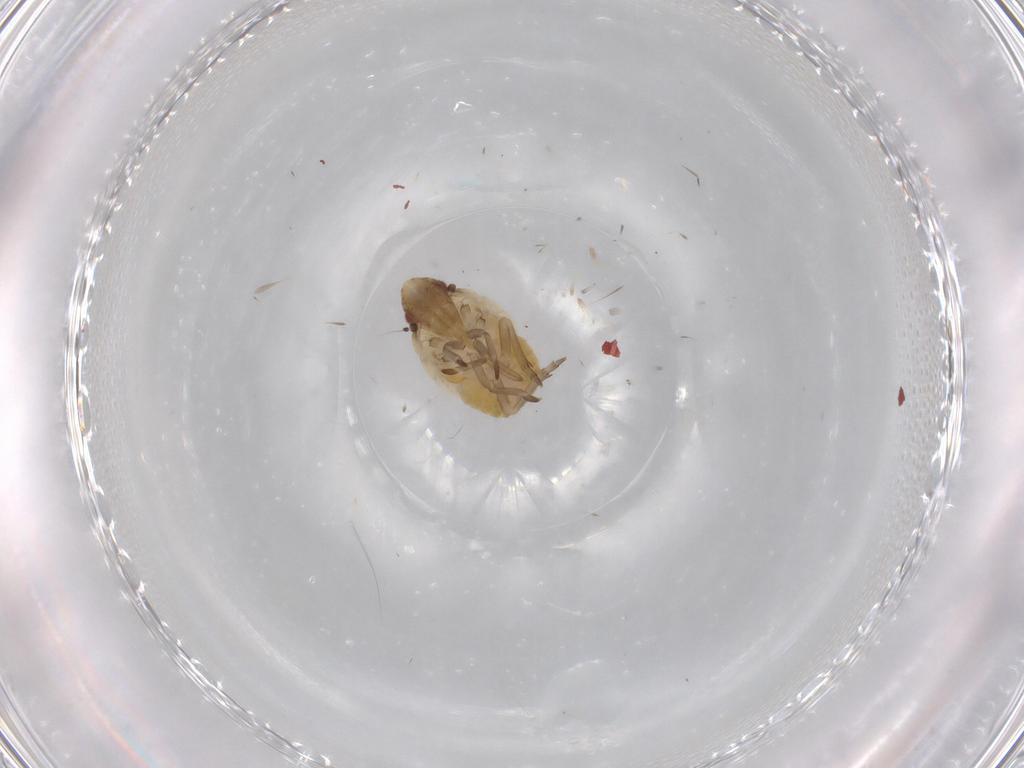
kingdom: Animalia
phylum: Arthropoda
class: Insecta
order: Hemiptera
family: Flatidae
